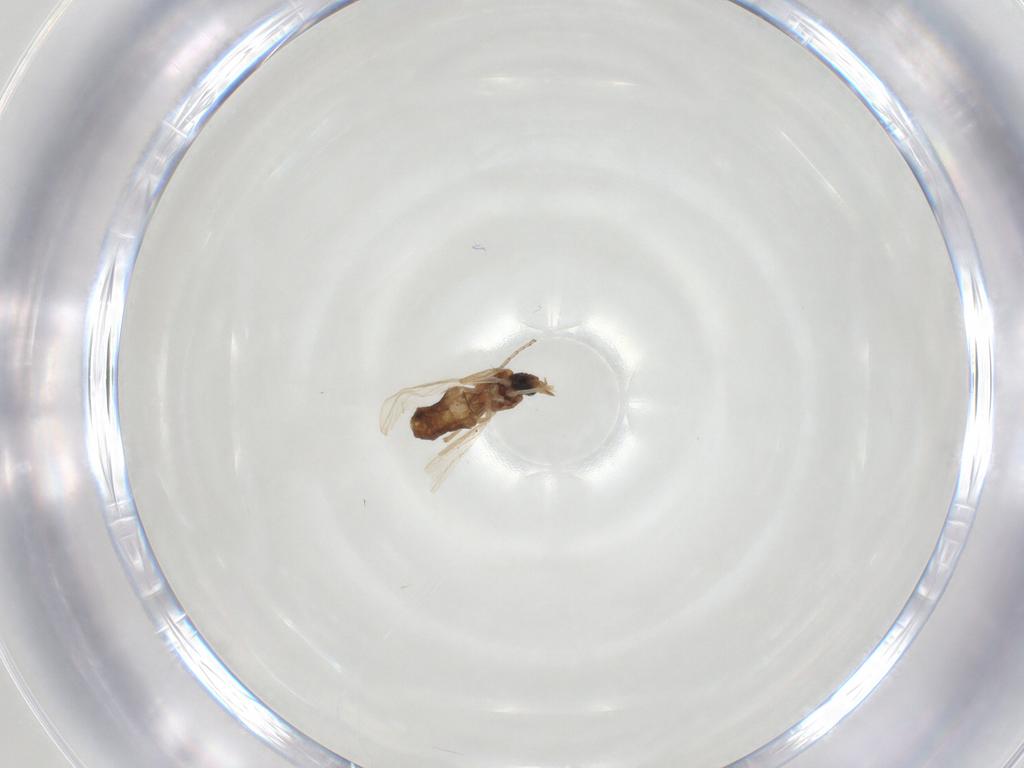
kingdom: Animalia
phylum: Arthropoda
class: Insecta
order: Diptera
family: Ceratopogonidae
